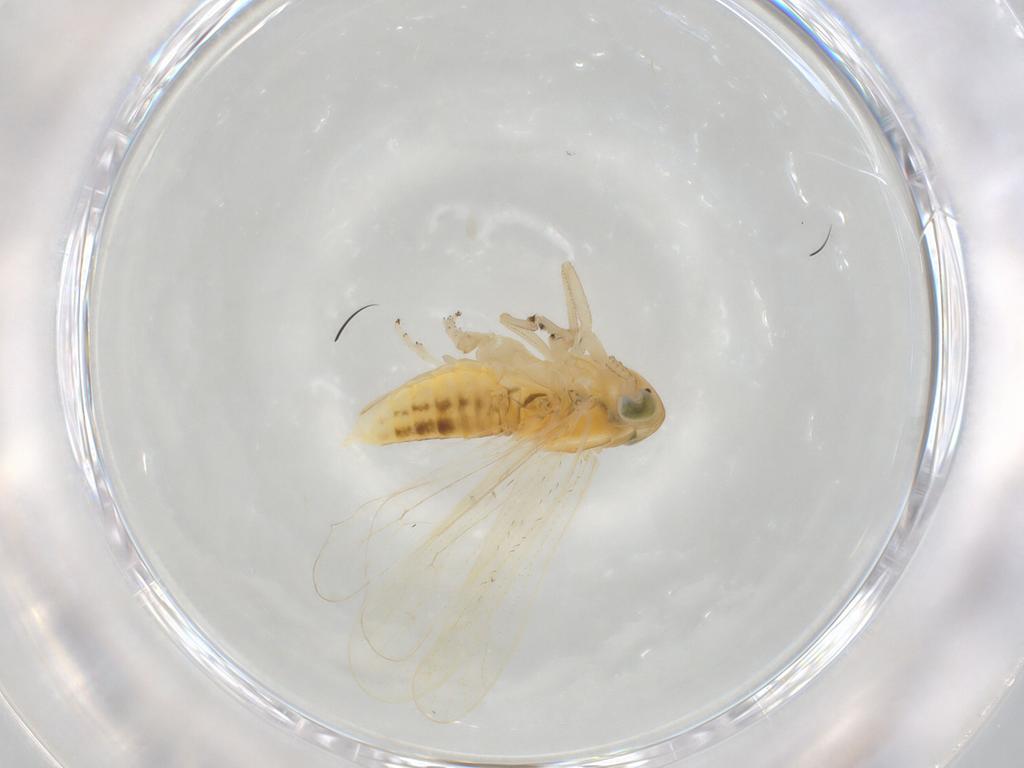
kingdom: Animalia
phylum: Arthropoda
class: Insecta
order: Hemiptera
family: Delphacidae
